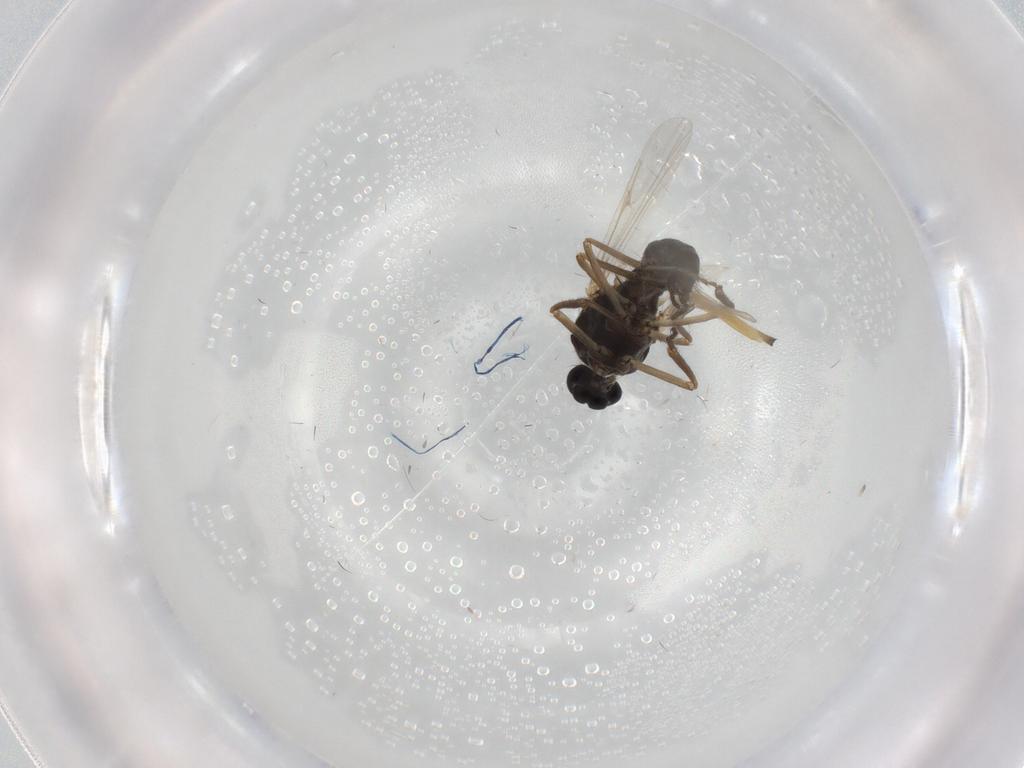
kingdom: Animalia
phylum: Arthropoda
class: Insecta
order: Diptera
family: Ceratopogonidae
